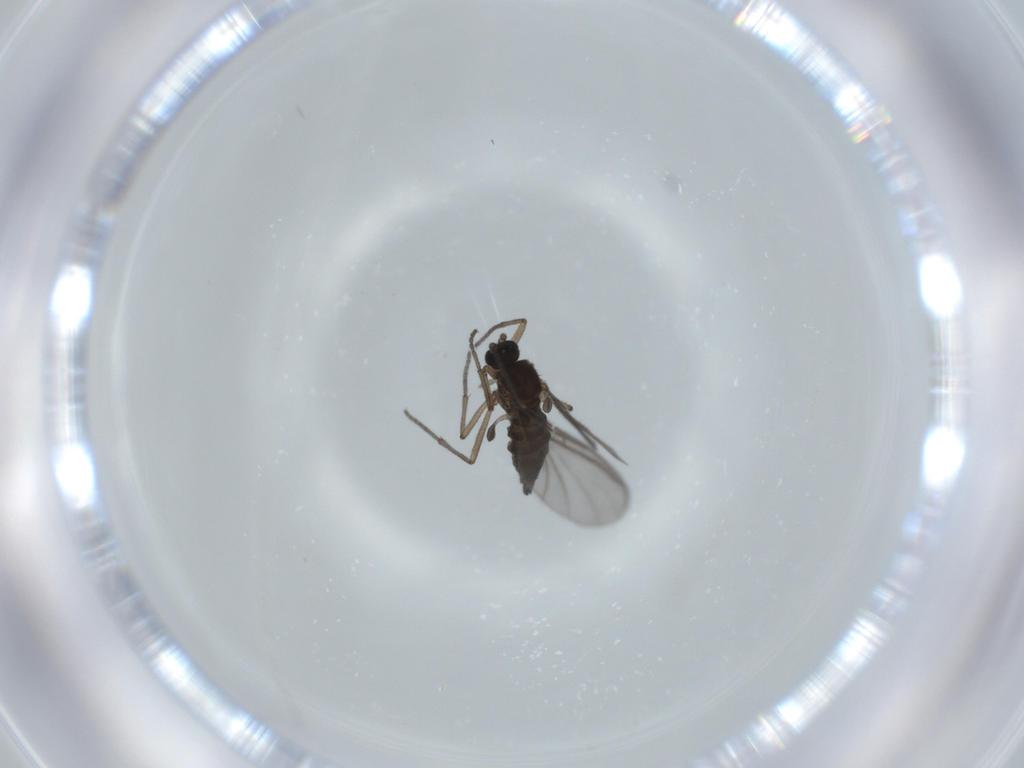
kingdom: Animalia
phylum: Arthropoda
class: Insecta
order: Diptera
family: Sciaridae
